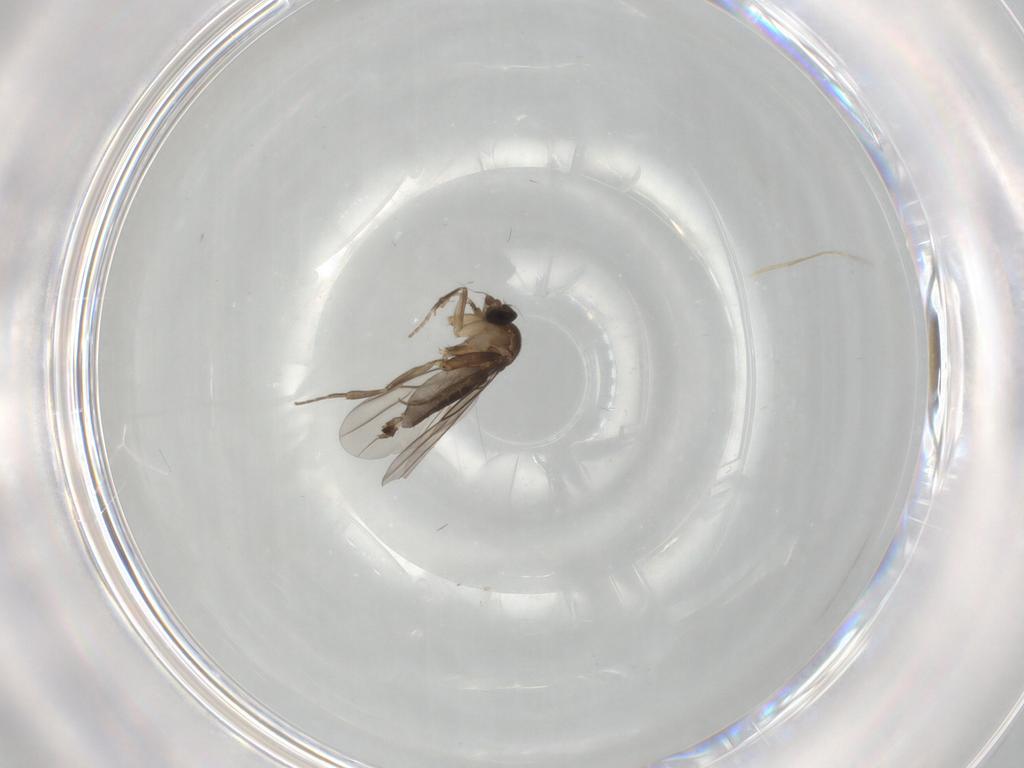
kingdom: Animalia
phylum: Arthropoda
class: Insecta
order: Diptera
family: Phoridae
